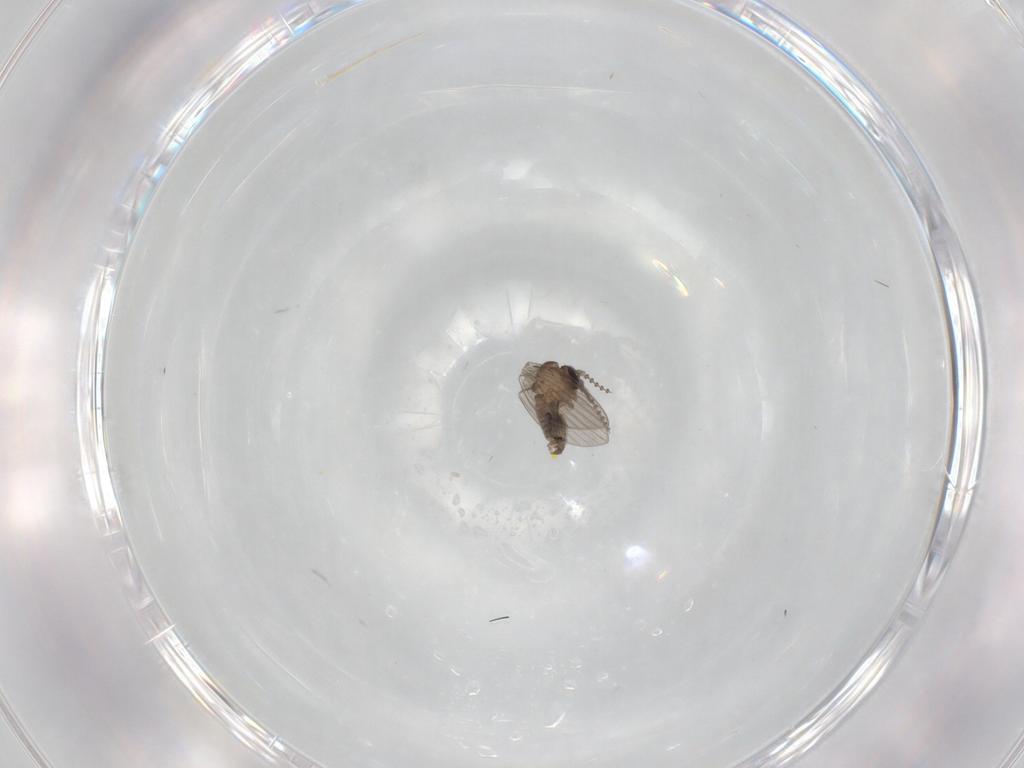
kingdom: Animalia
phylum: Arthropoda
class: Insecta
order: Diptera
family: Psychodidae
